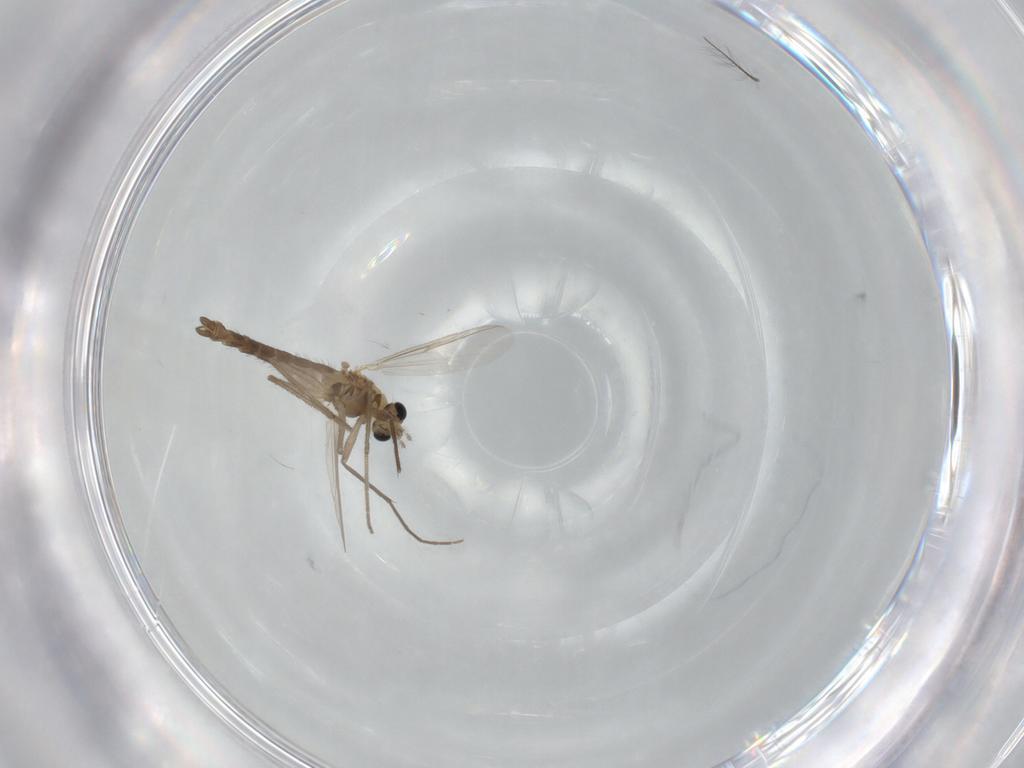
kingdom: Animalia
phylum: Arthropoda
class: Insecta
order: Diptera
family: Chironomidae
